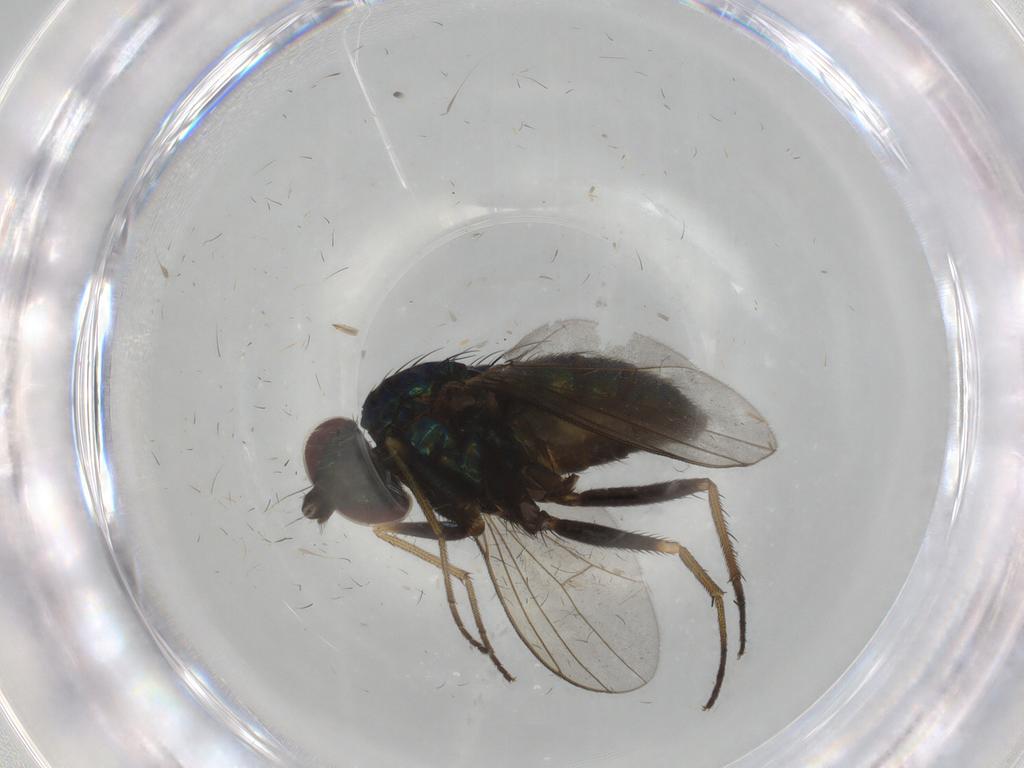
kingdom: Animalia
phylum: Arthropoda
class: Insecta
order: Diptera
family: Dolichopodidae
